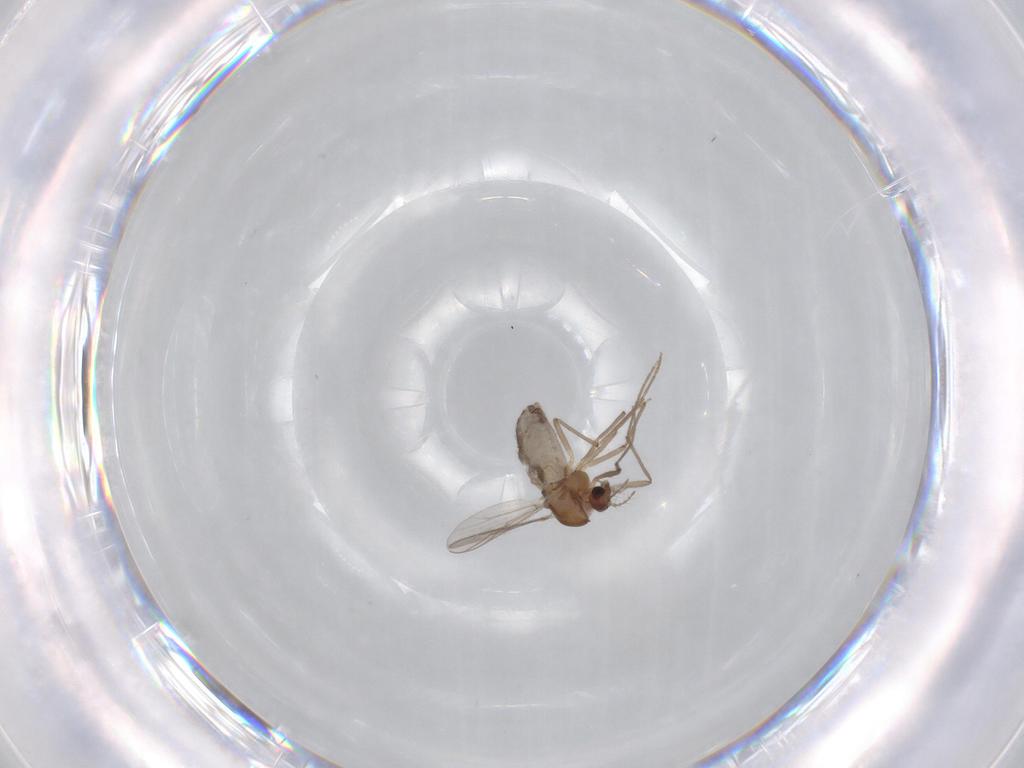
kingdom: Animalia
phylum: Arthropoda
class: Insecta
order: Diptera
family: Chironomidae
